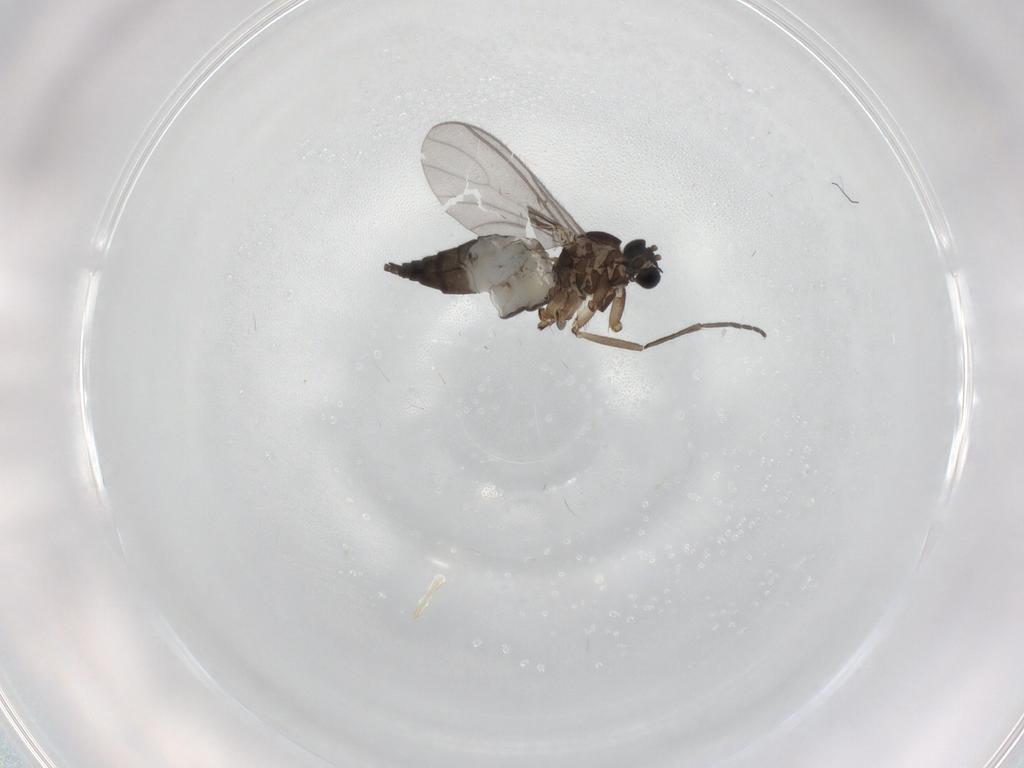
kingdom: Animalia
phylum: Arthropoda
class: Insecta
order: Diptera
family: Sciaridae
